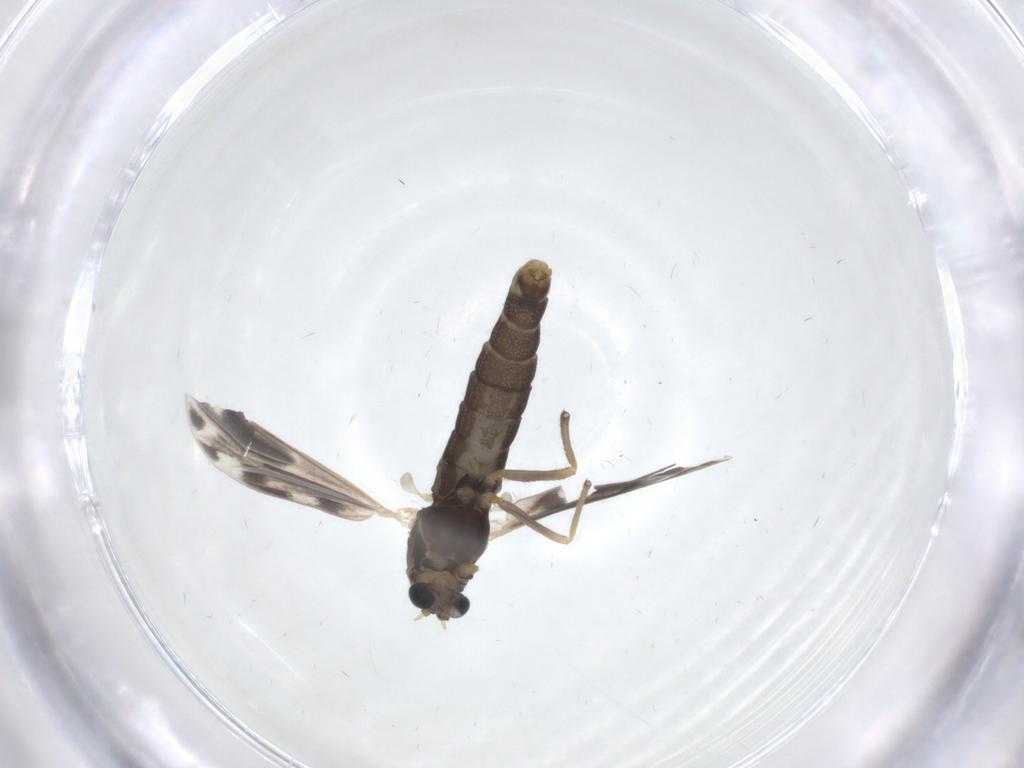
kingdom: Animalia
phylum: Arthropoda
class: Insecta
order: Diptera
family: Chironomidae
